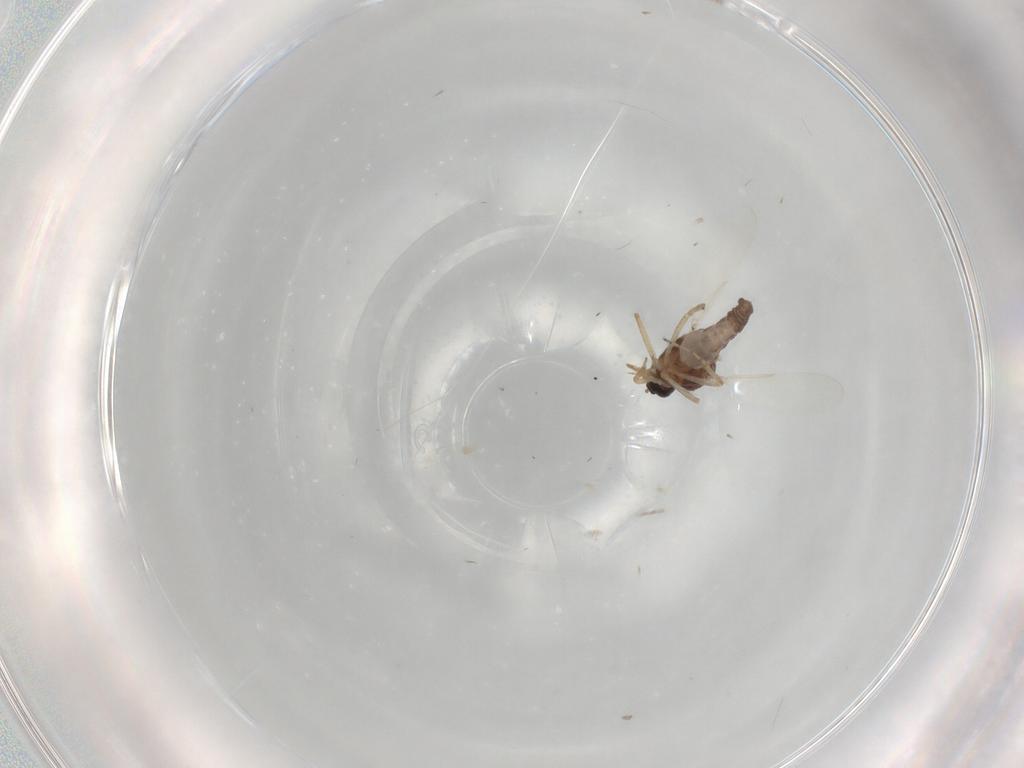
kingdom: Animalia
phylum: Arthropoda
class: Insecta
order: Diptera
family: Ceratopogonidae
